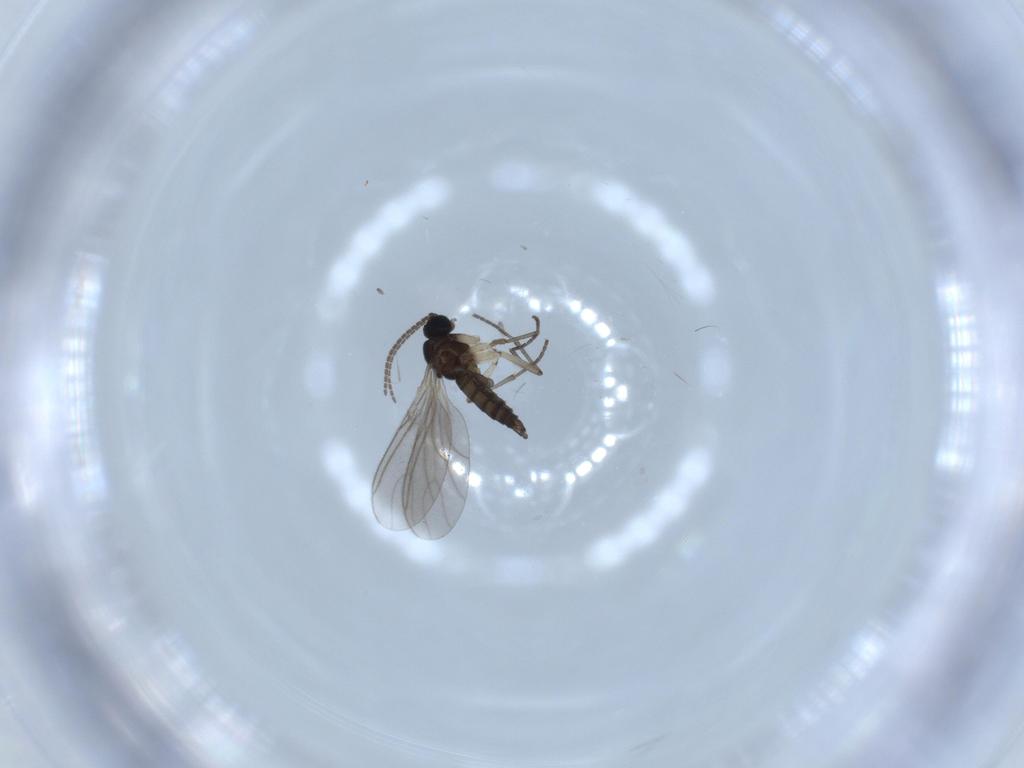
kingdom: Animalia
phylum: Arthropoda
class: Insecta
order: Diptera
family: Sciaridae
